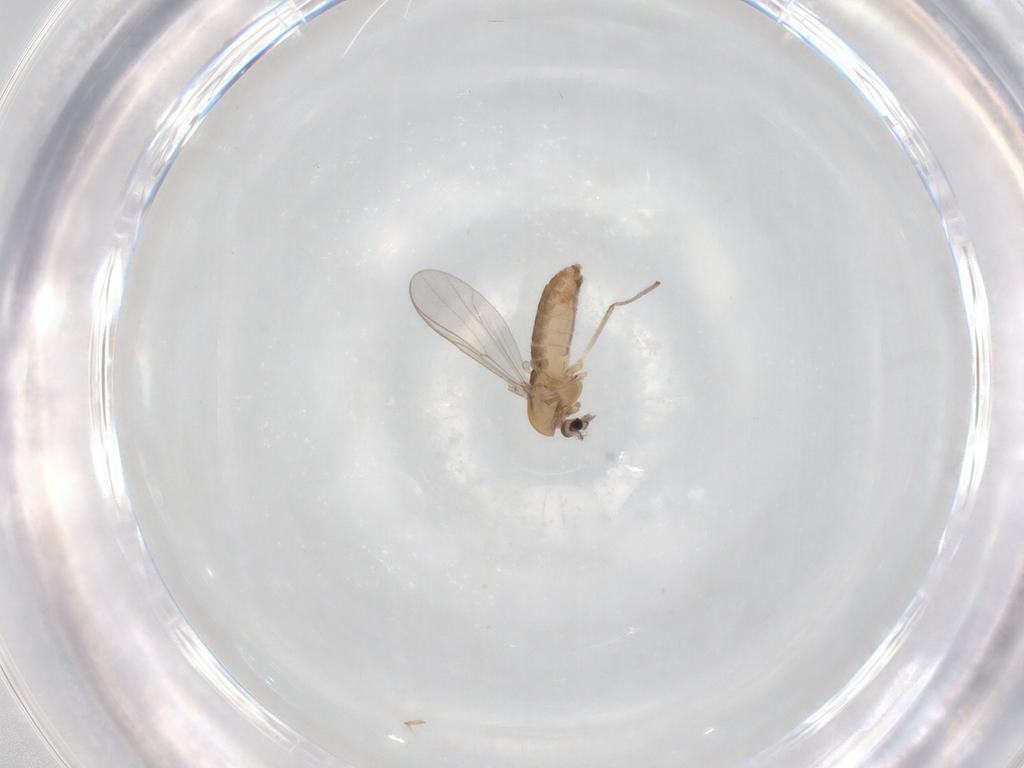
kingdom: Animalia
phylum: Arthropoda
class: Insecta
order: Diptera
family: Chironomidae
